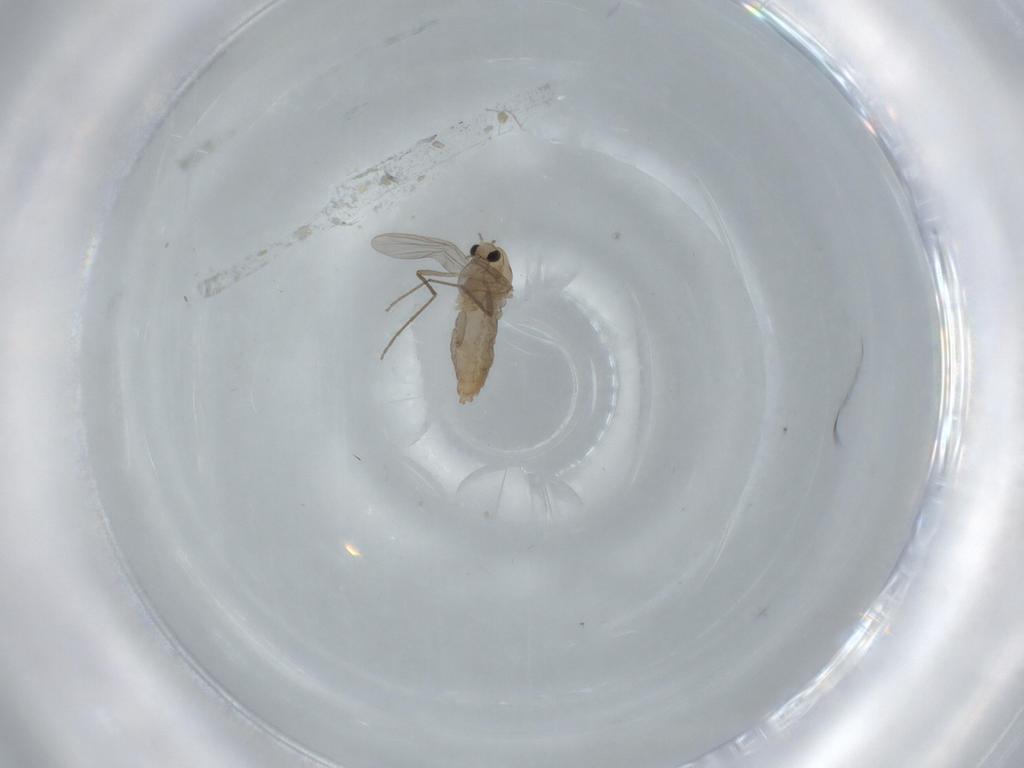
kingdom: Animalia
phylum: Arthropoda
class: Insecta
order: Diptera
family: Chironomidae
